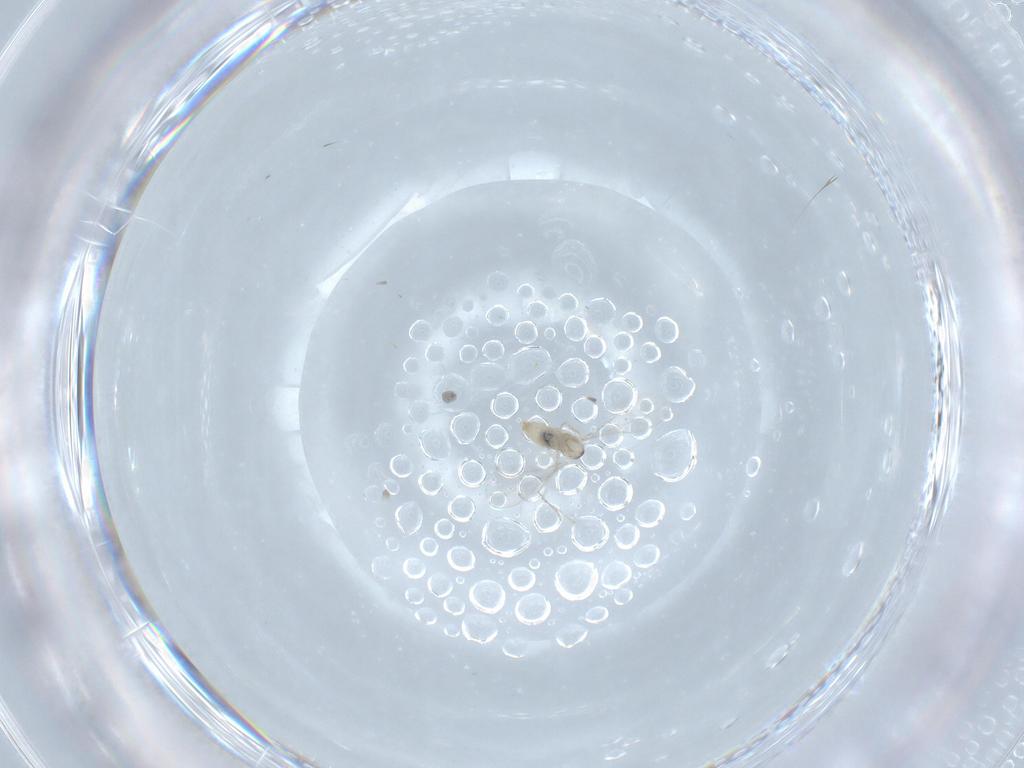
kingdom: Animalia
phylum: Arthropoda
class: Insecta
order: Diptera
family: Cecidomyiidae
